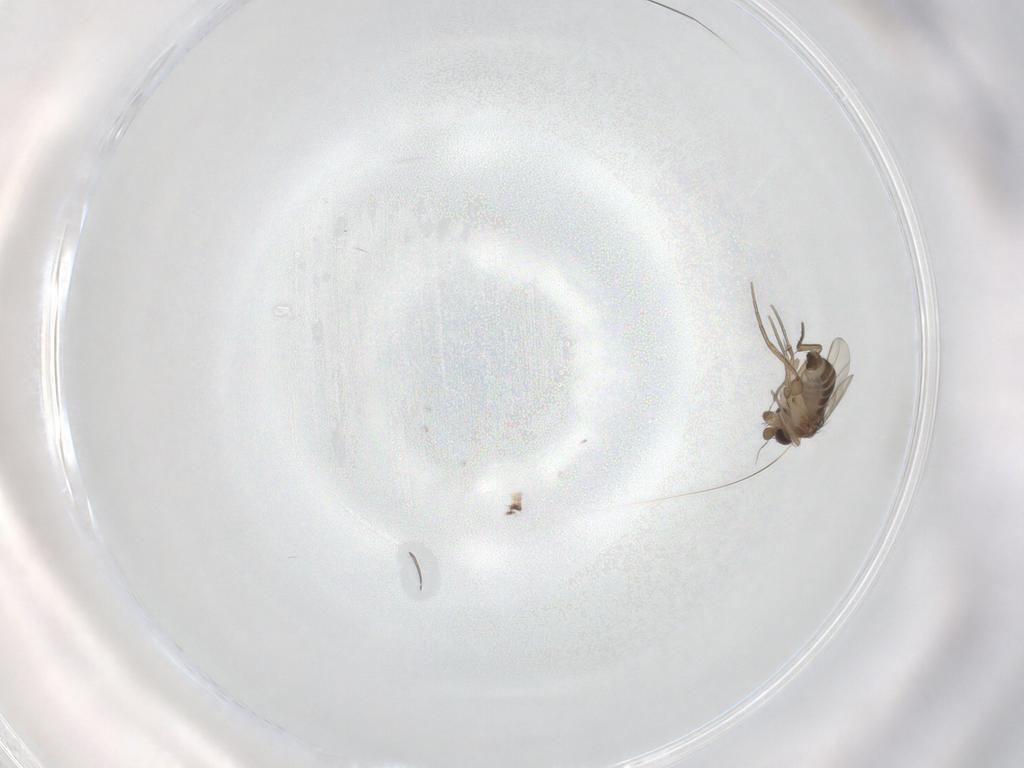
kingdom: Animalia
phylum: Arthropoda
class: Insecta
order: Diptera
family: Phoridae
